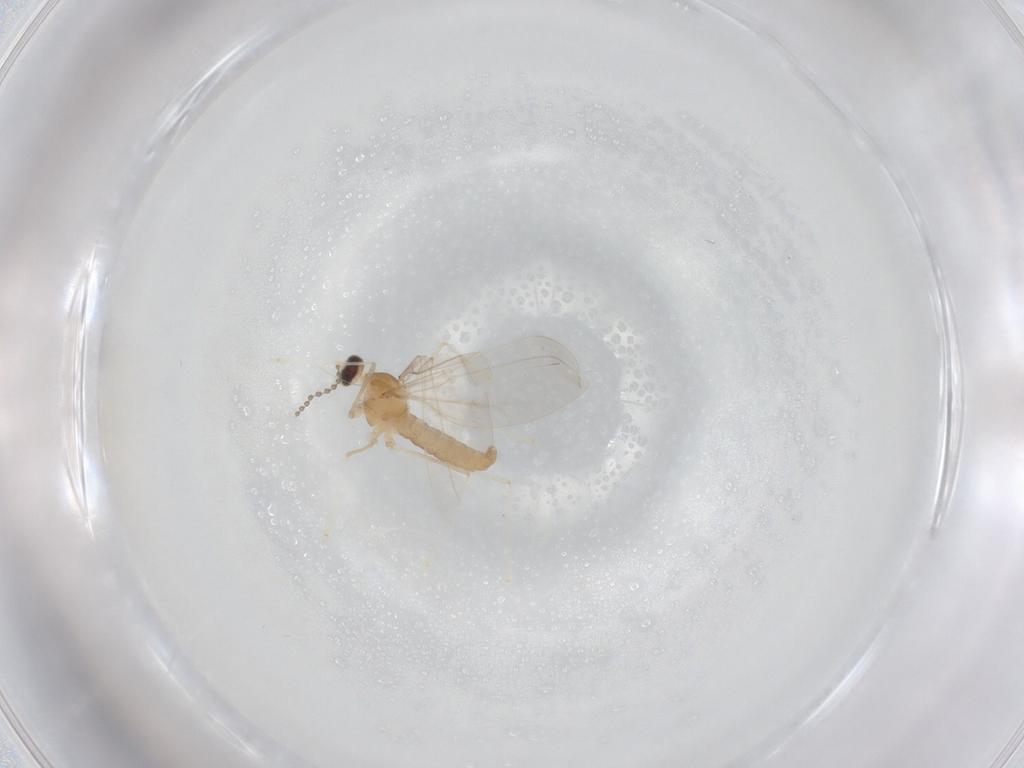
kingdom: Animalia
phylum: Arthropoda
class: Insecta
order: Diptera
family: Cecidomyiidae
